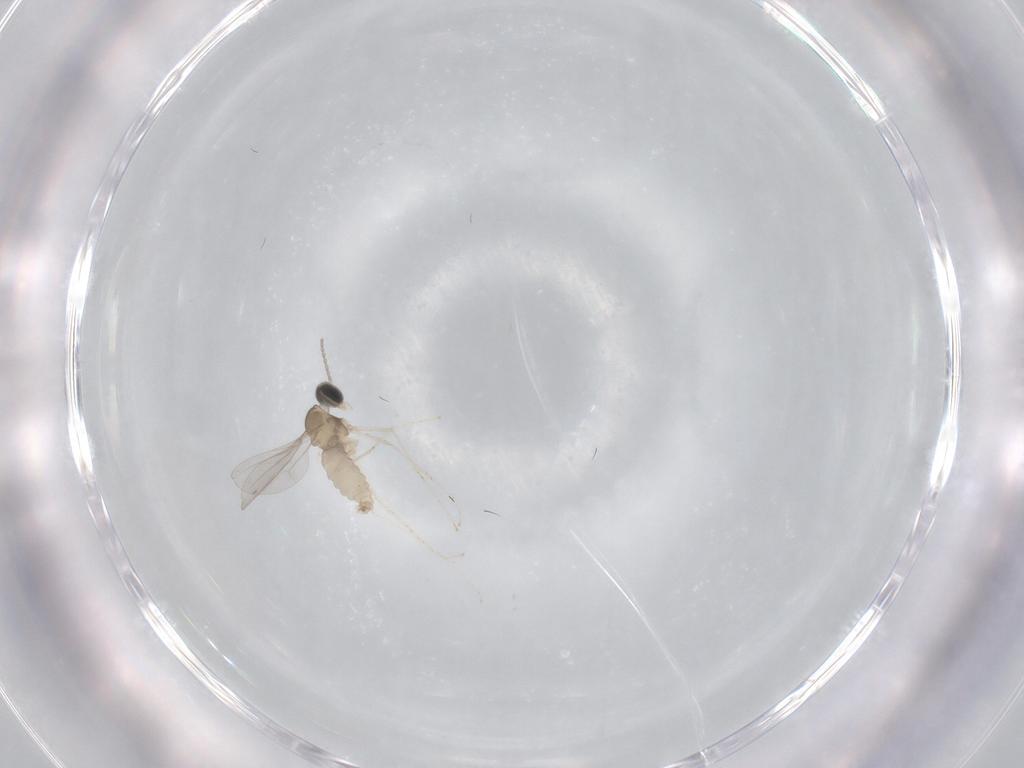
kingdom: Animalia
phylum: Arthropoda
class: Insecta
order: Diptera
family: Cecidomyiidae
